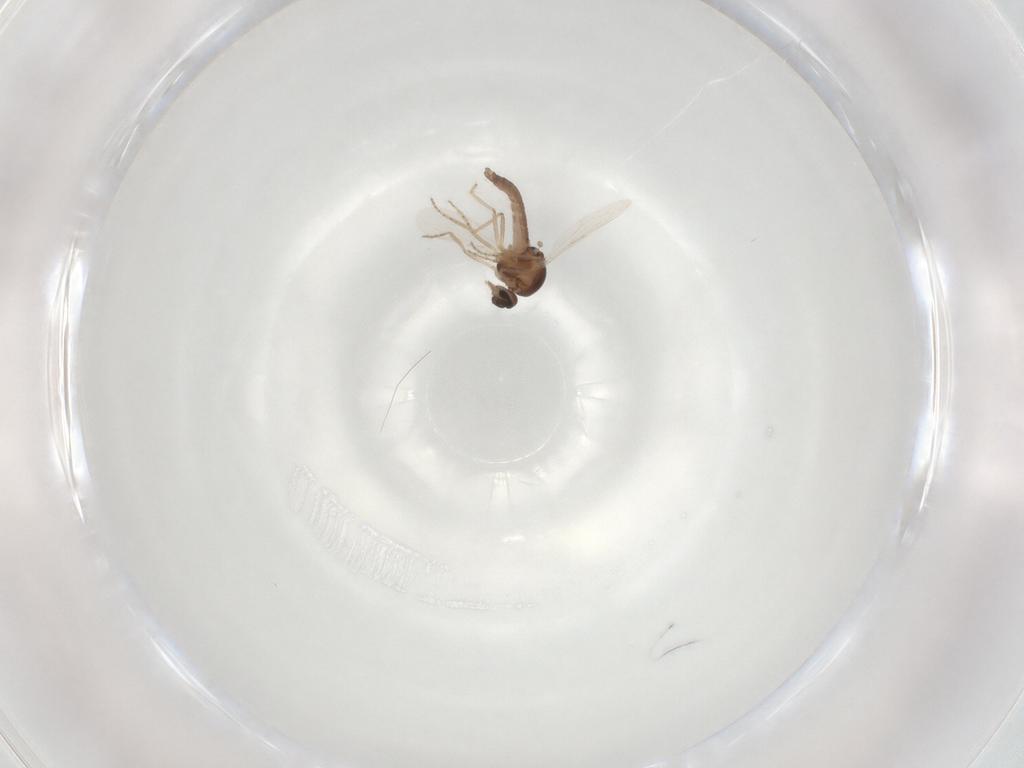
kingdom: Animalia
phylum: Arthropoda
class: Insecta
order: Diptera
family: Ceratopogonidae
